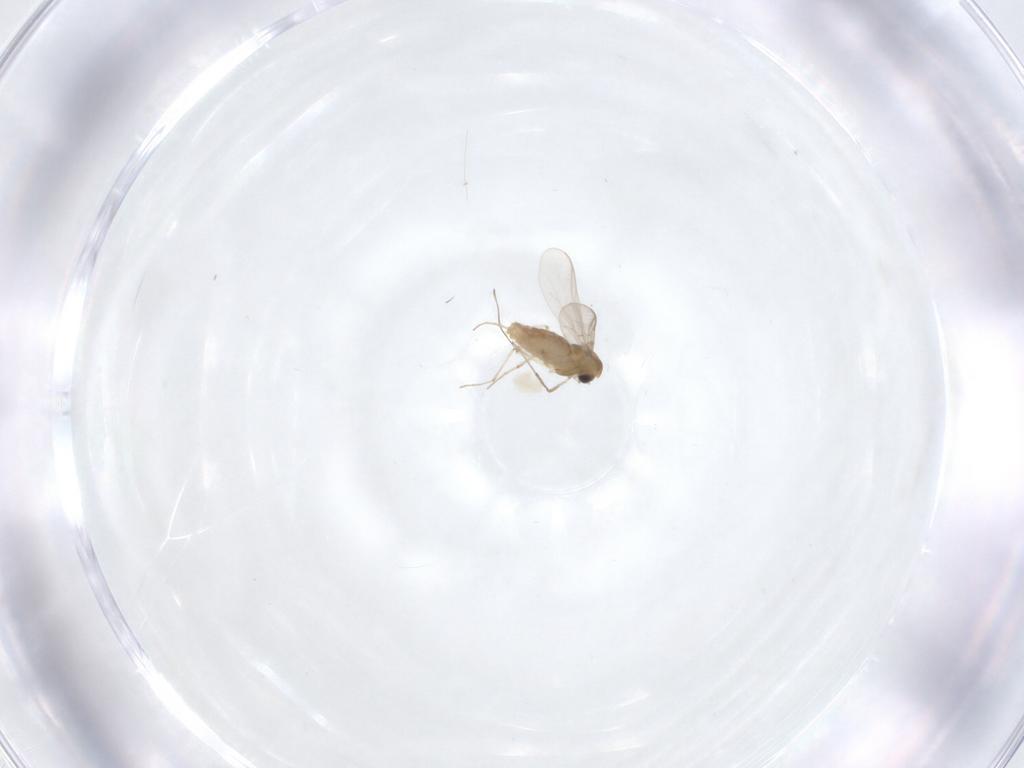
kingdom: Animalia
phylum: Arthropoda
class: Insecta
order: Diptera
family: Chironomidae
